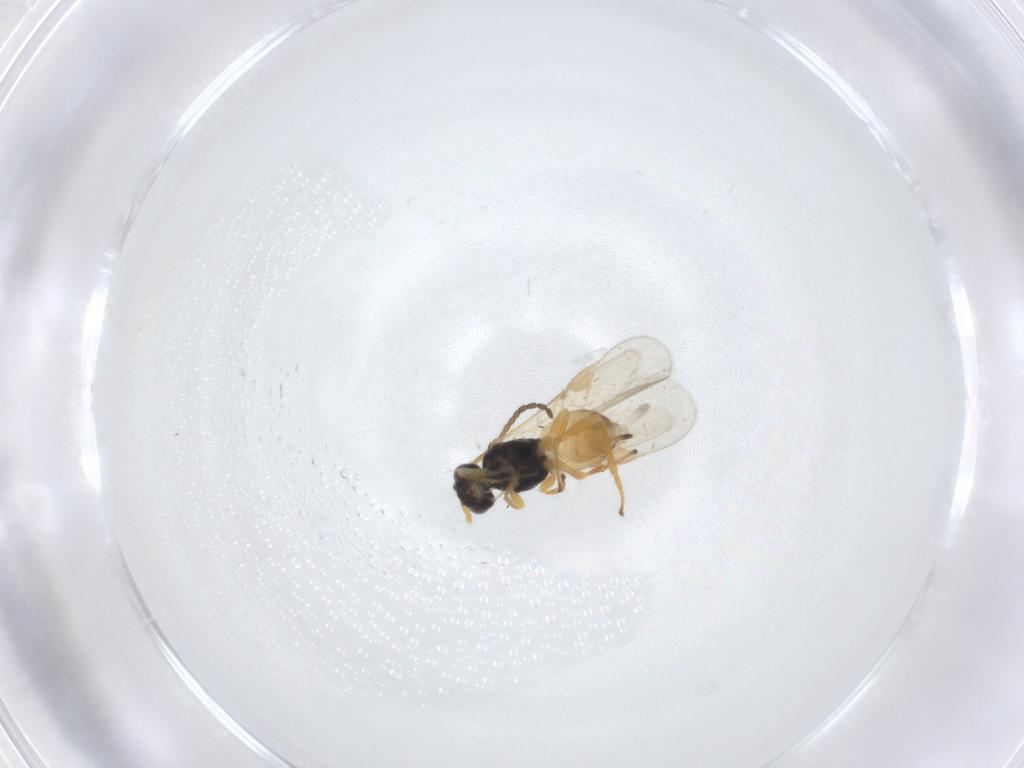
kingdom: Animalia
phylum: Arthropoda
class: Insecta
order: Hymenoptera
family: Braconidae
